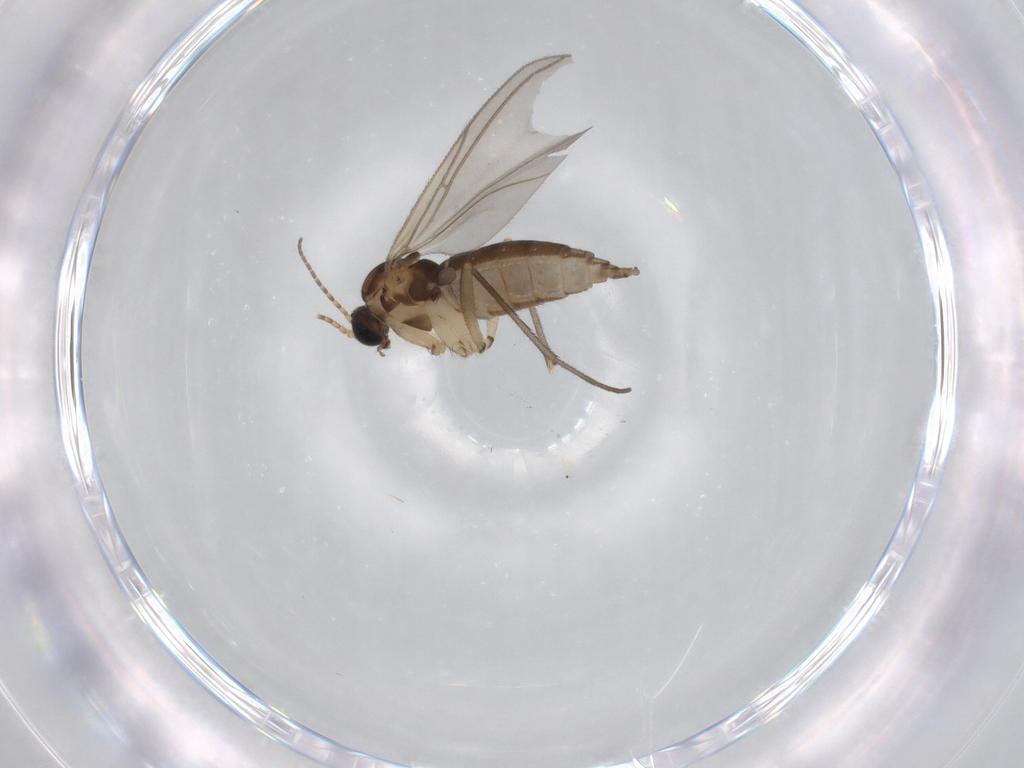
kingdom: Animalia
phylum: Arthropoda
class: Insecta
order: Diptera
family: Sciaridae
